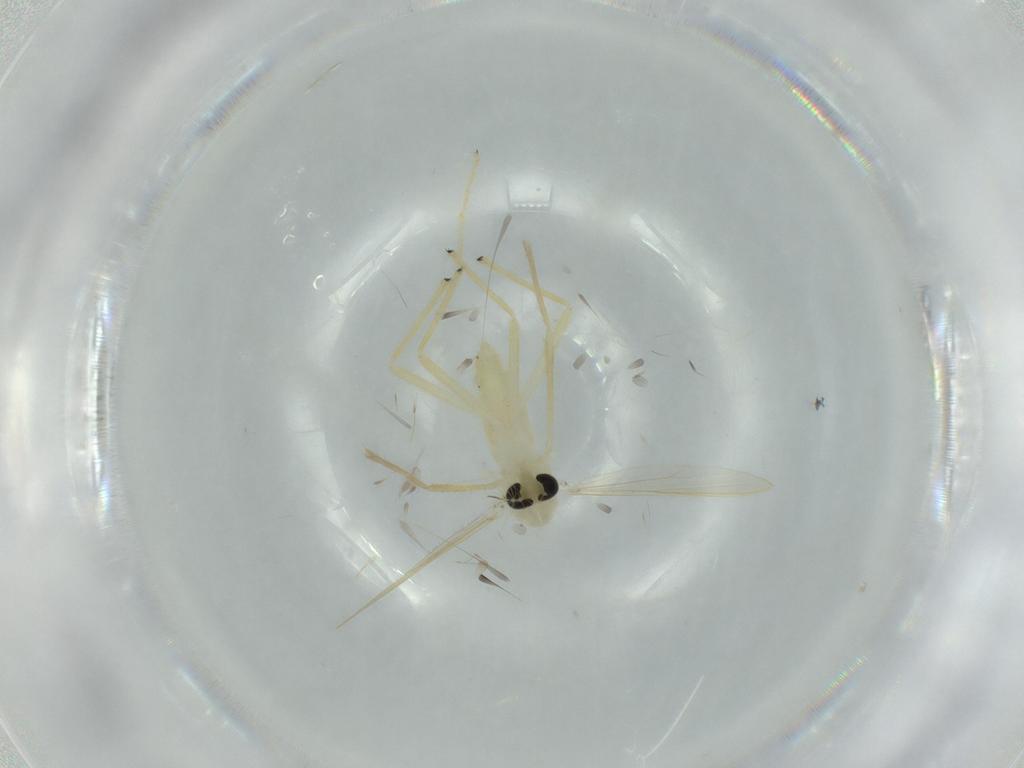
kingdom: Animalia
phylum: Arthropoda
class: Insecta
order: Diptera
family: Chironomidae
